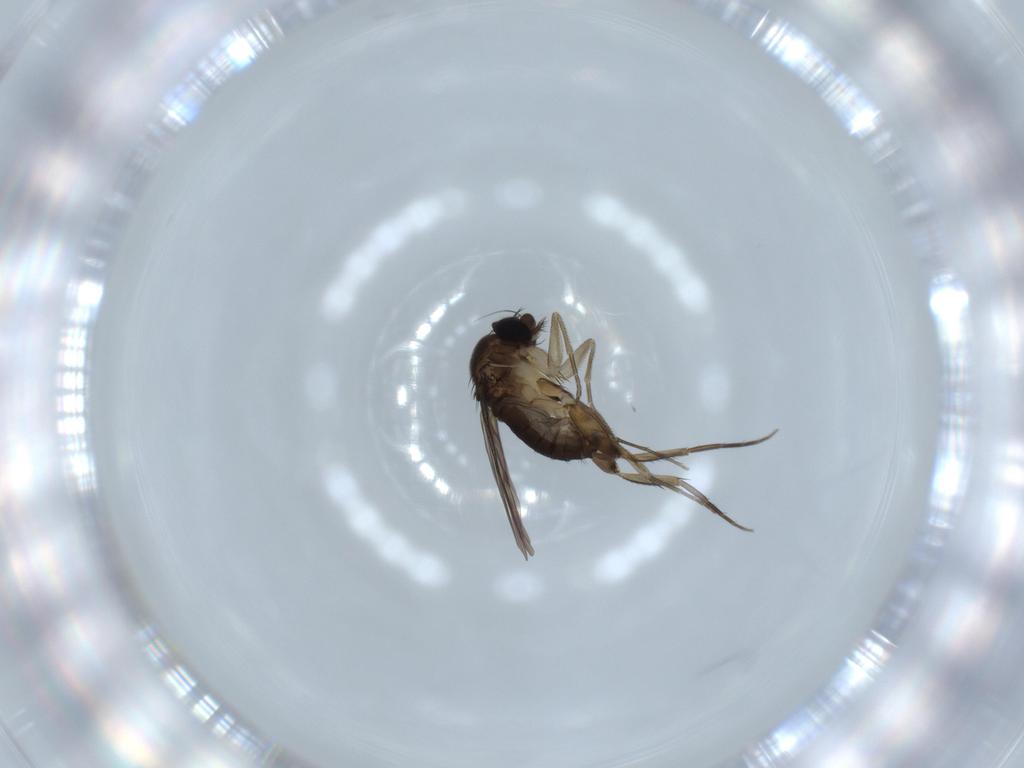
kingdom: Animalia
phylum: Arthropoda
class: Insecta
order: Diptera
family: Phoridae
